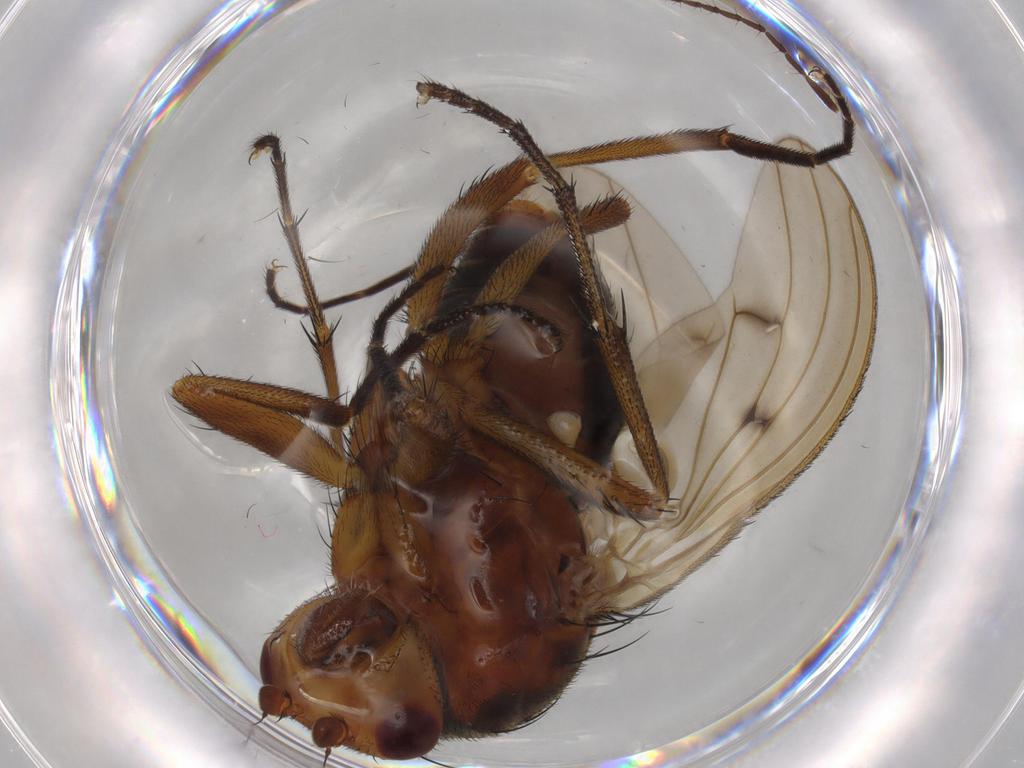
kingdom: Animalia
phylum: Arthropoda
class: Insecta
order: Diptera
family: Heleomyzidae
